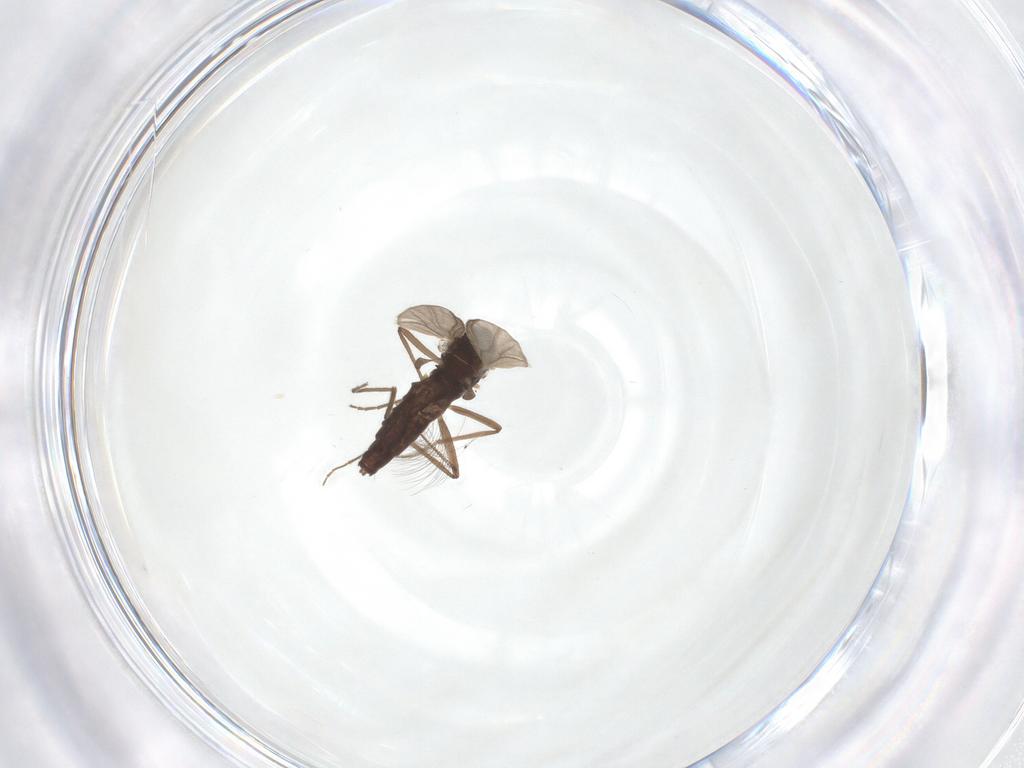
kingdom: Animalia
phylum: Arthropoda
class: Insecta
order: Diptera
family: Chironomidae
